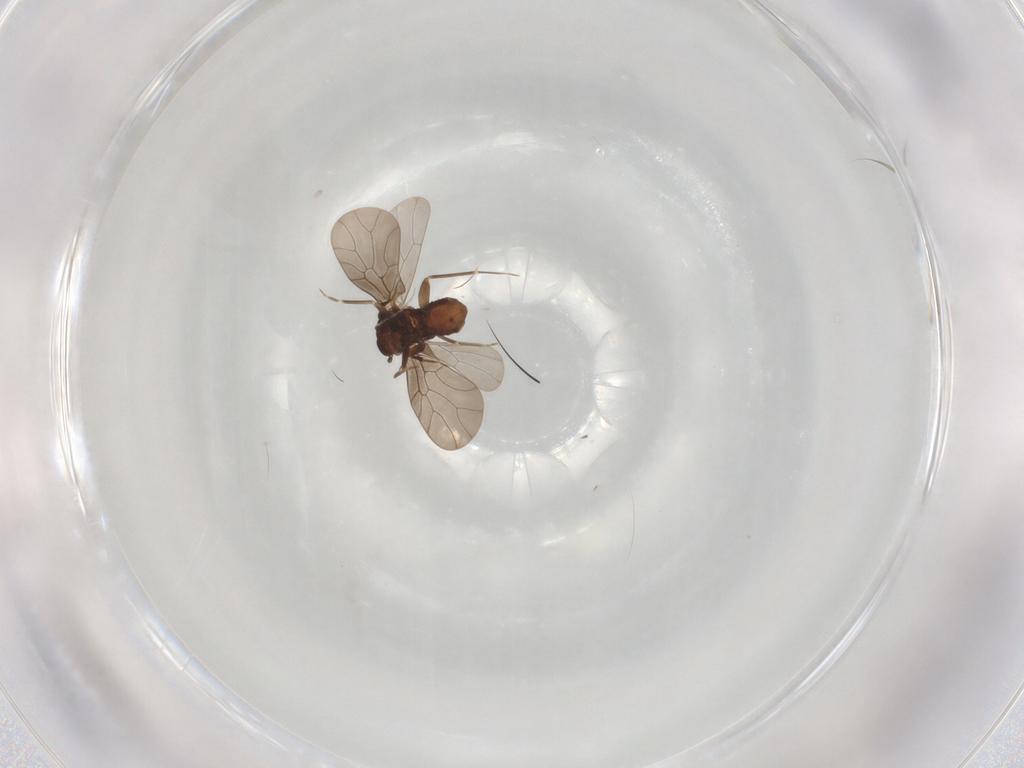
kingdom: Animalia
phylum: Arthropoda
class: Insecta
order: Psocodea
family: Lepidopsocidae
